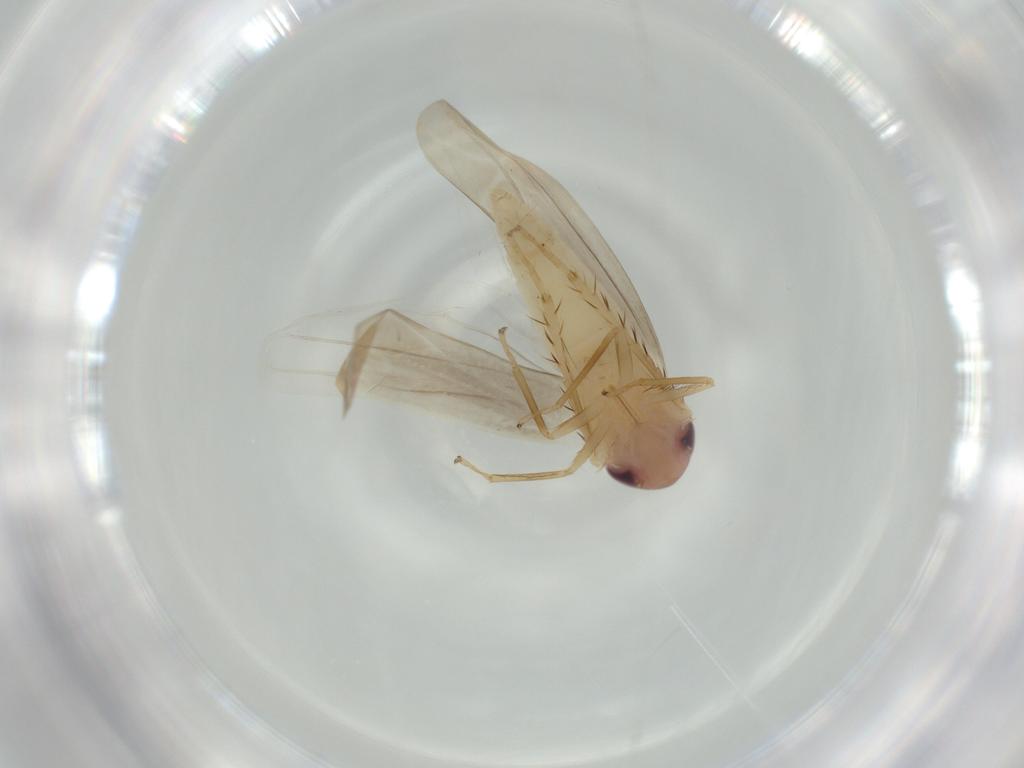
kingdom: Animalia
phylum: Arthropoda
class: Insecta
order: Hemiptera
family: Cicadellidae
